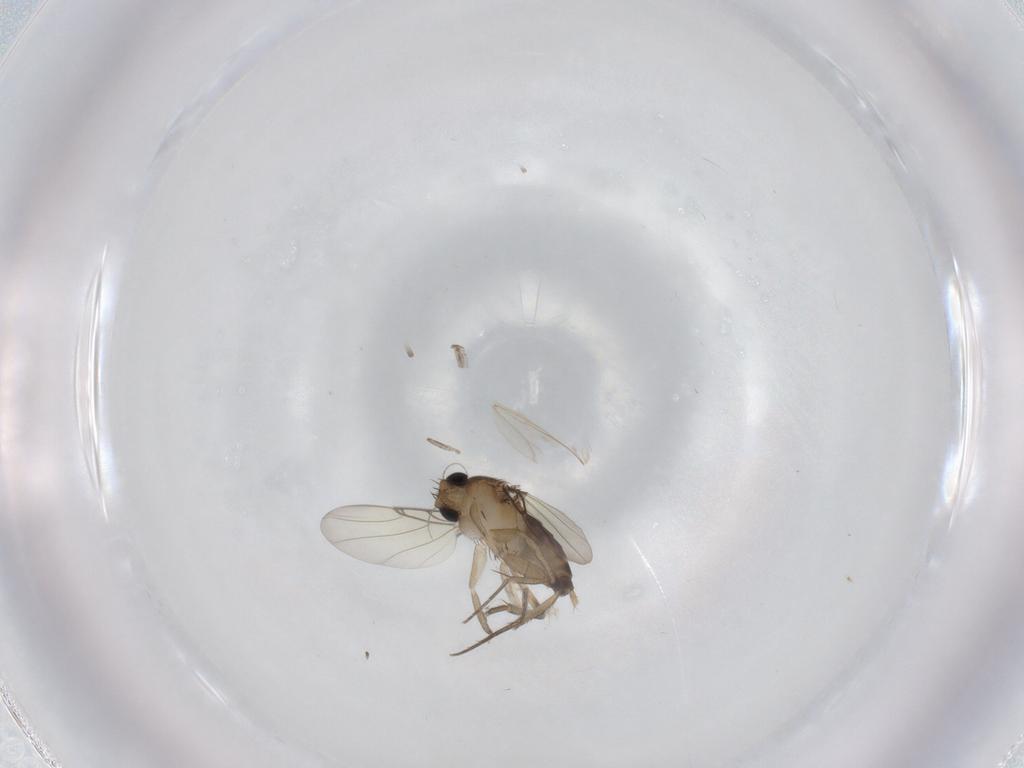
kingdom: Animalia
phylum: Arthropoda
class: Insecta
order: Diptera
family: Phoridae
